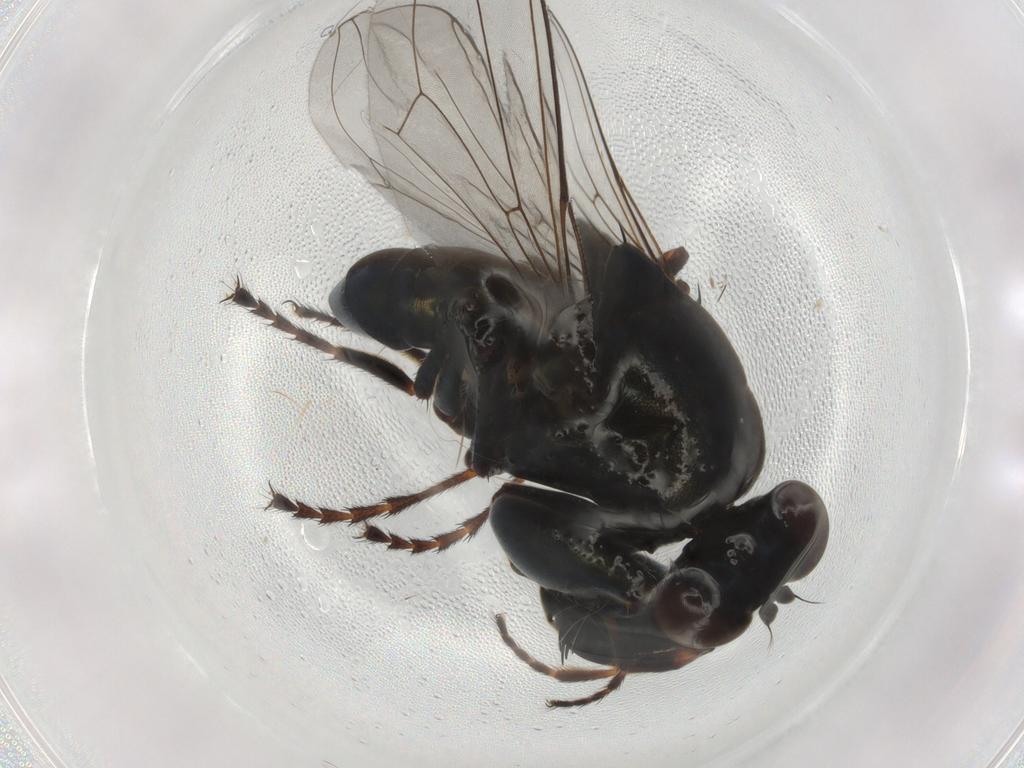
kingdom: Animalia
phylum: Arthropoda
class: Insecta
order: Diptera
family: Ephydridae
